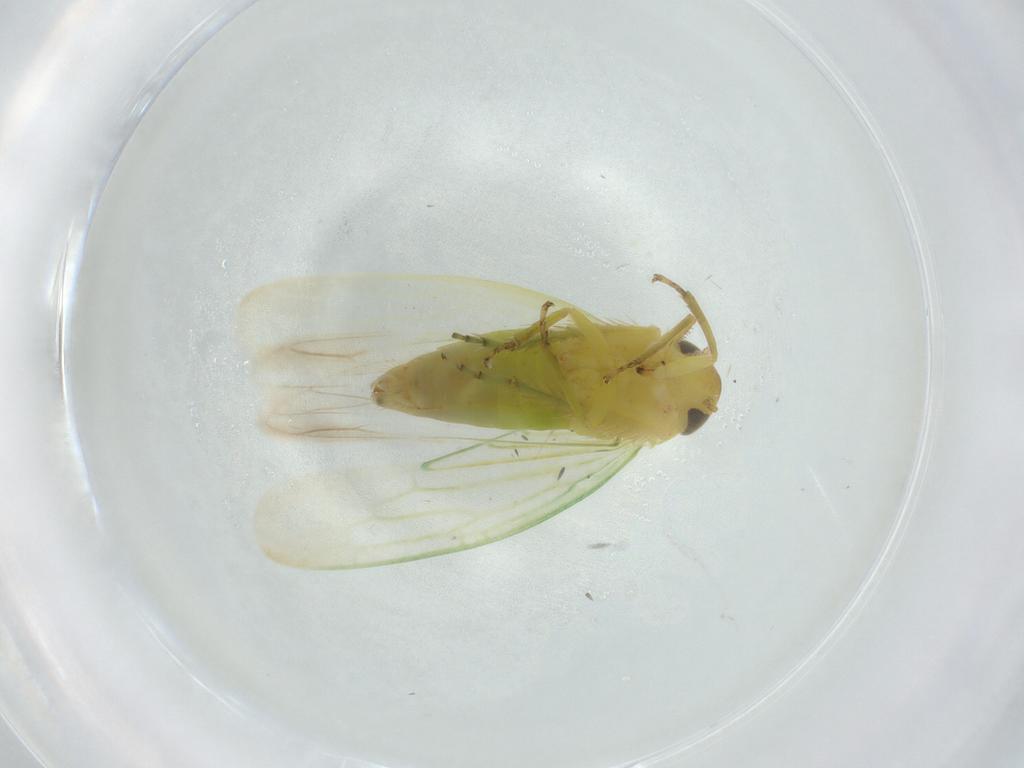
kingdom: Animalia
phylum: Arthropoda
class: Insecta
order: Hemiptera
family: Cicadellidae
